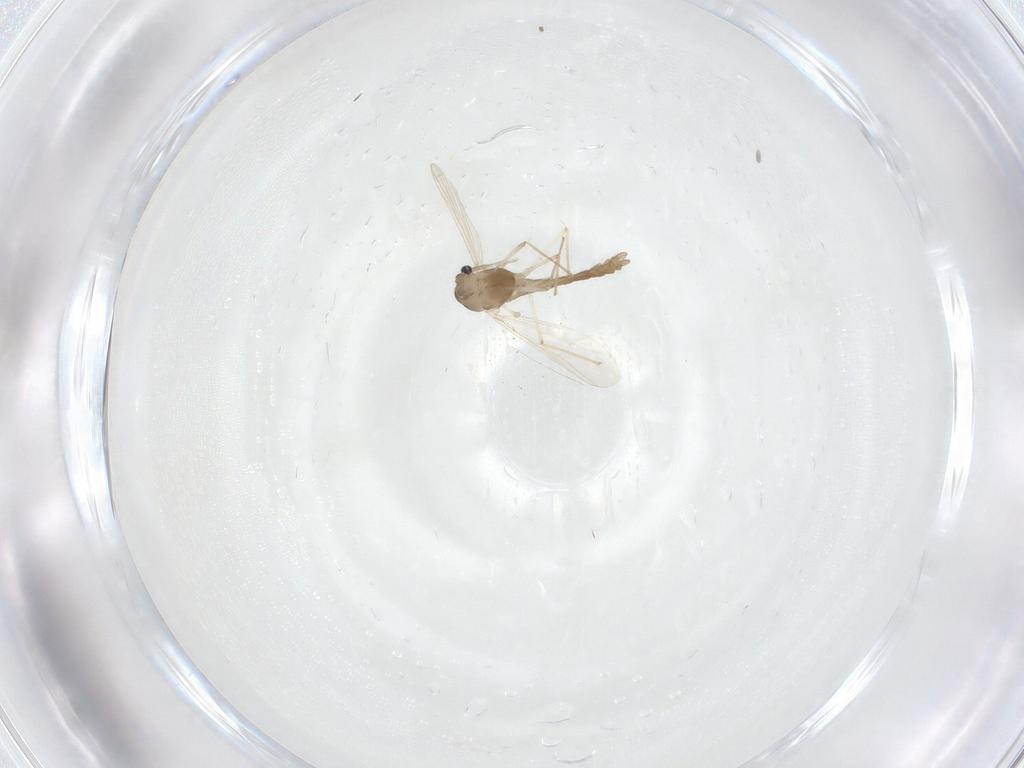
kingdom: Animalia
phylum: Arthropoda
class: Insecta
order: Diptera
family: Chironomidae
